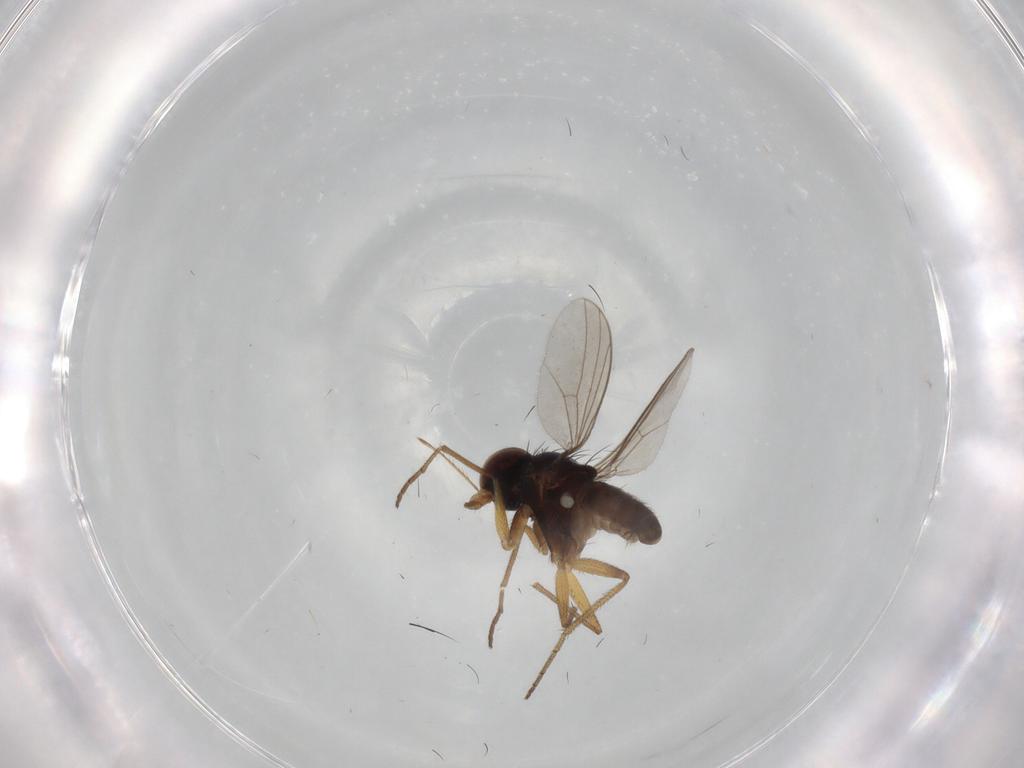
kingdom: Animalia
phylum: Arthropoda
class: Insecta
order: Diptera
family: Dolichopodidae
